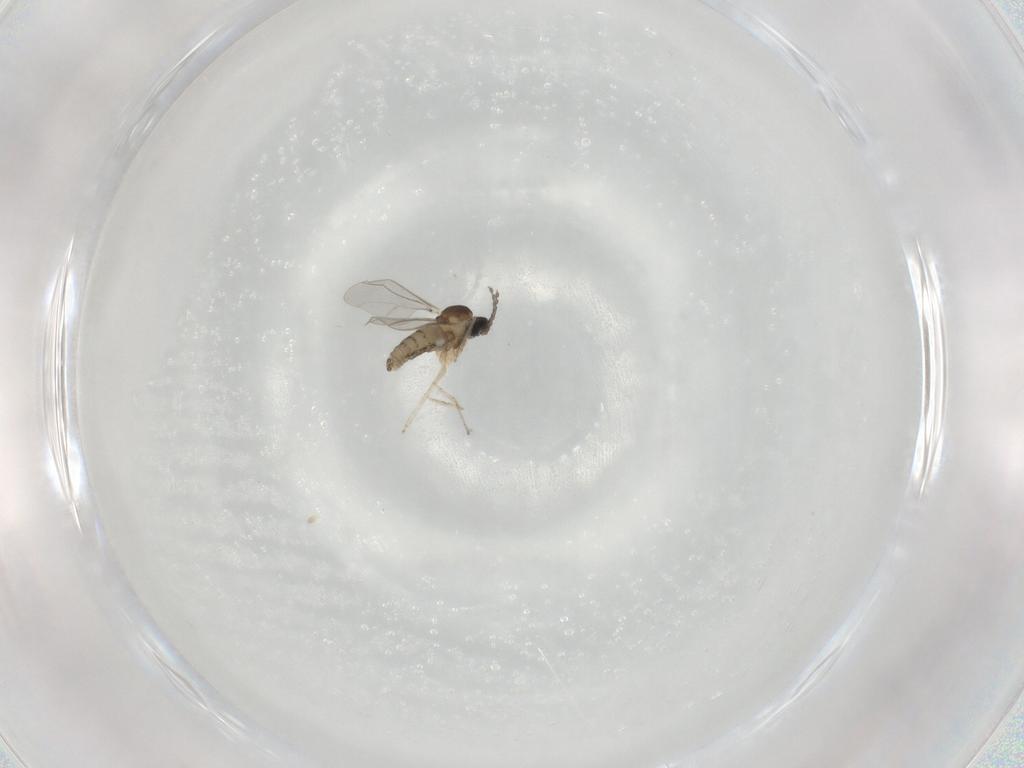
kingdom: Animalia
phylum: Arthropoda
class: Insecta
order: Diptera
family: Cecidomyiidae
